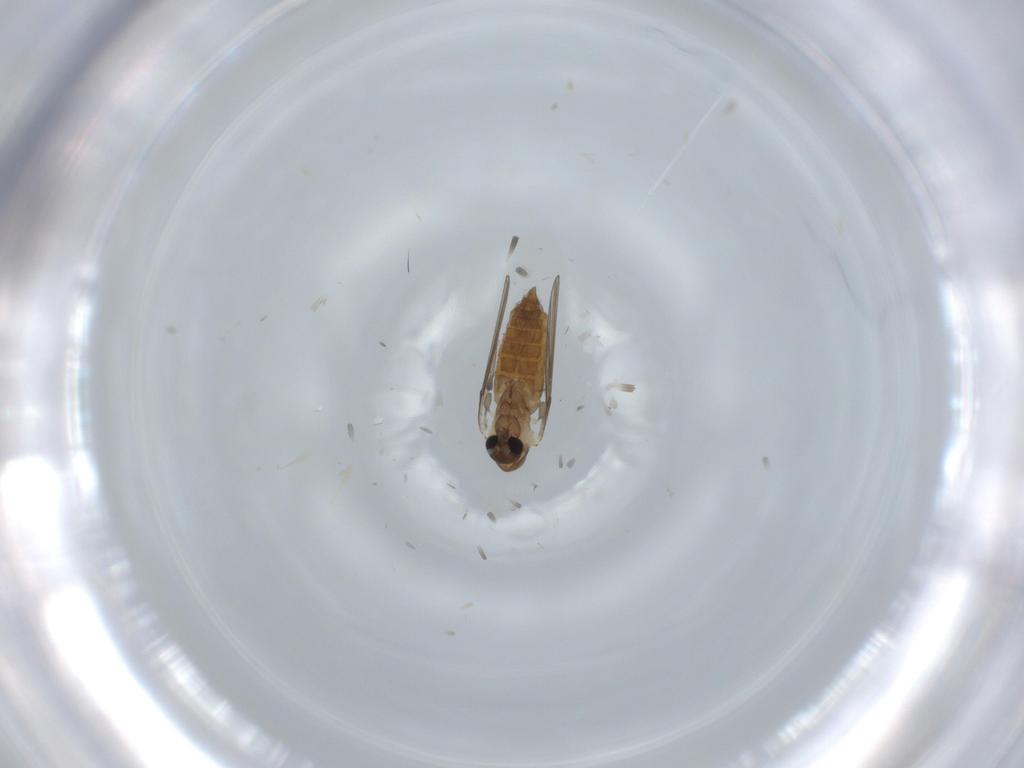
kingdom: Animalia
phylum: Arthropoda
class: Insecta
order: Diptera
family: Psychodidae
